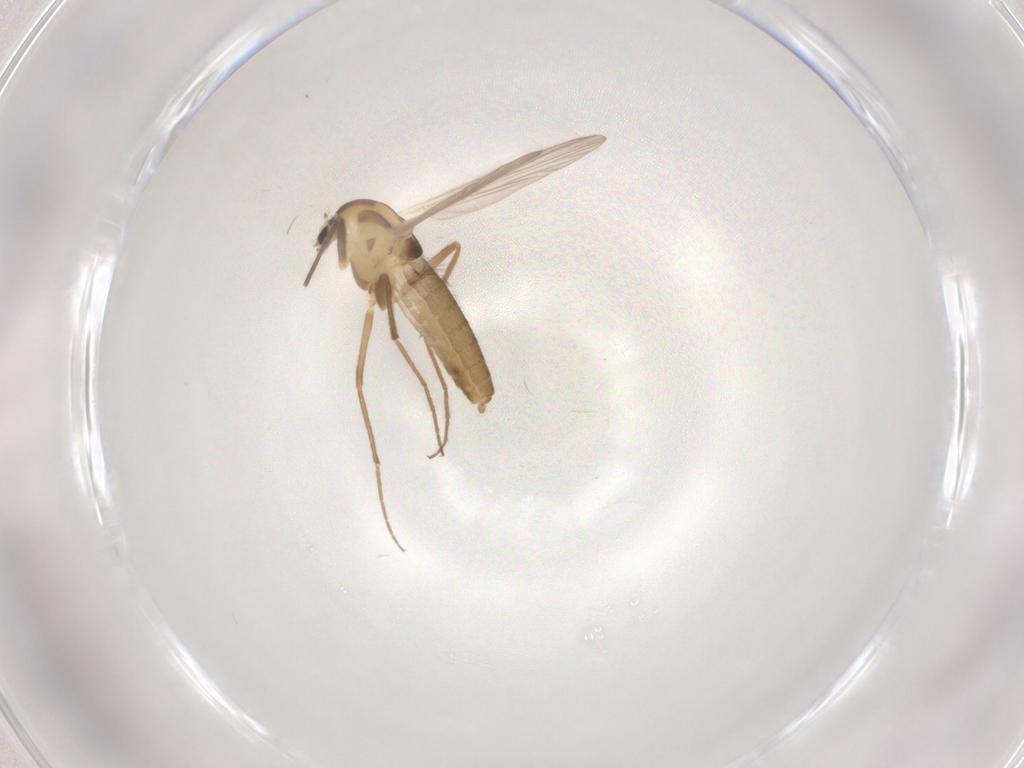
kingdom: Animalia
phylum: Arthropoda
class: Insecta
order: Diptera
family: Chironomidae
